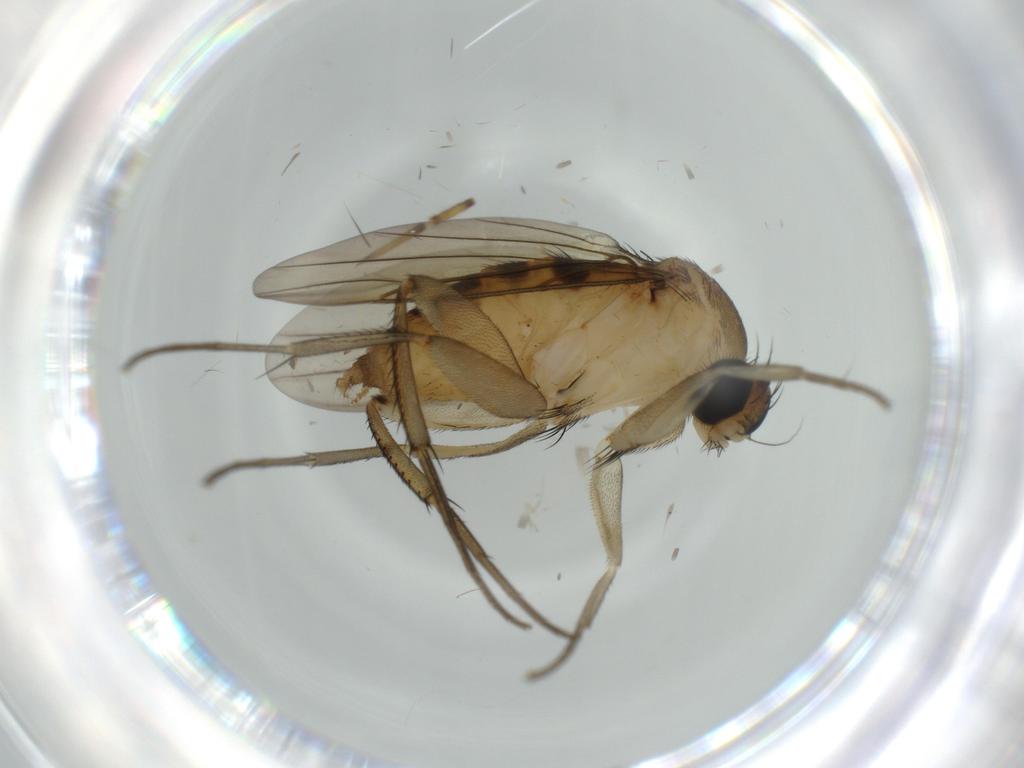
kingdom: Animalia
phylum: Arthropoda
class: Insecta
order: Diptera
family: Phoridae
